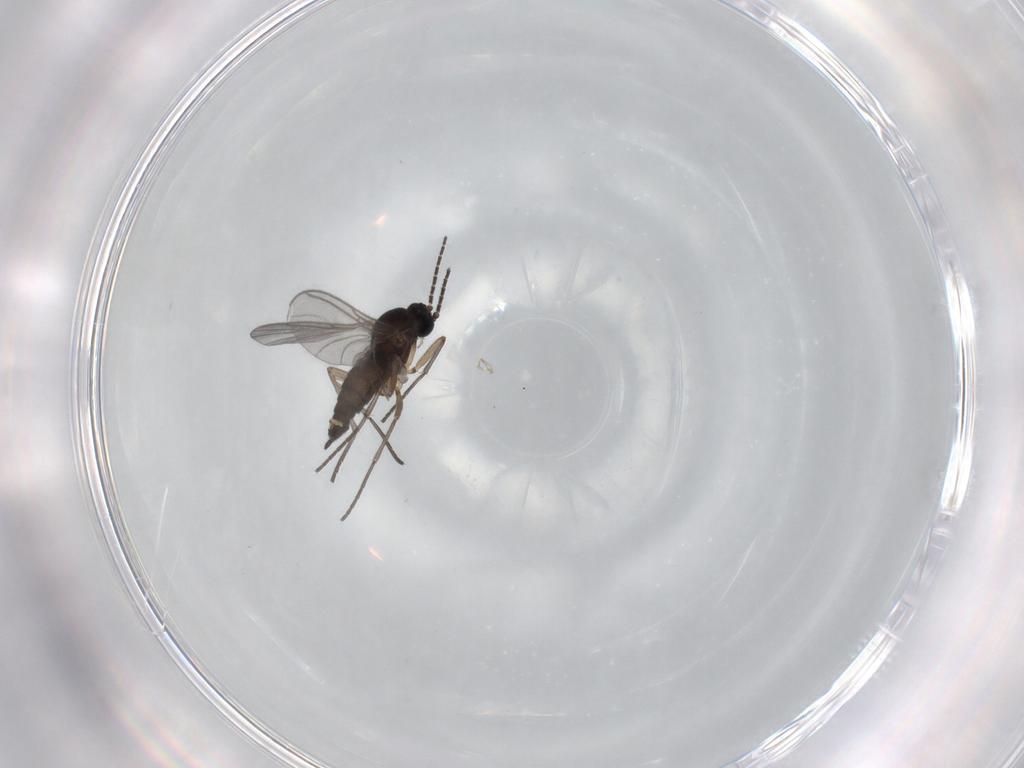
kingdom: Animalia
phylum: Arthropoda
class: Insecta
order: Diptera
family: Sciaridae
